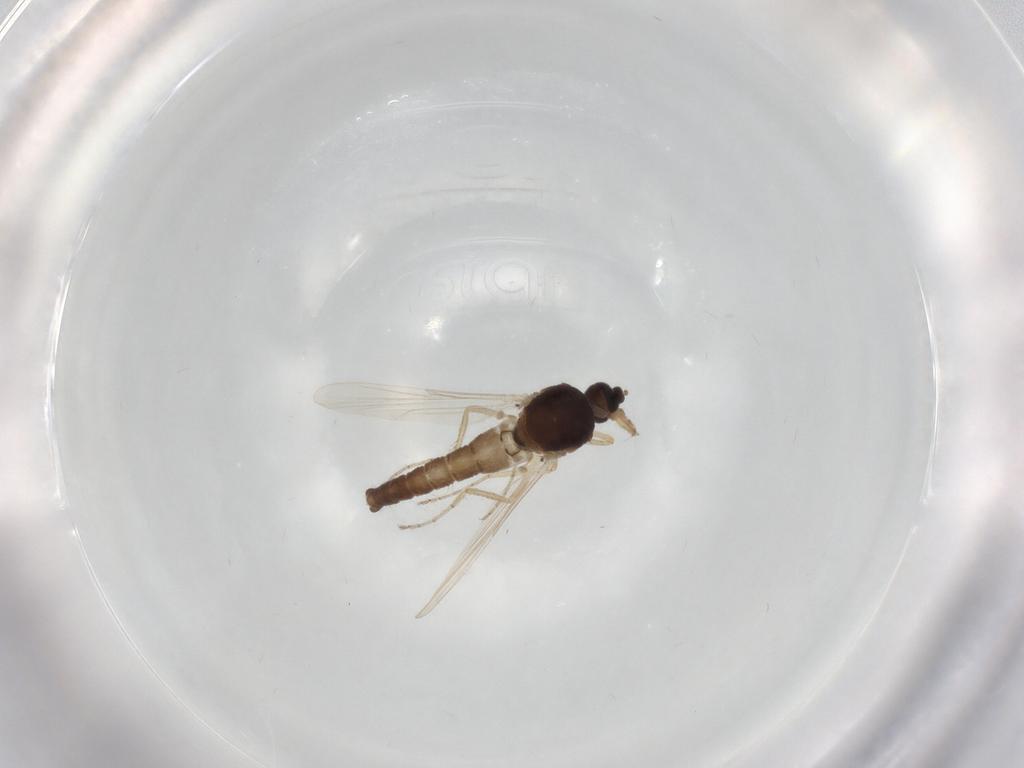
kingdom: Animalia
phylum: Arthropoda
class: Insecta
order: Diptera
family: Ceratopogonidae
